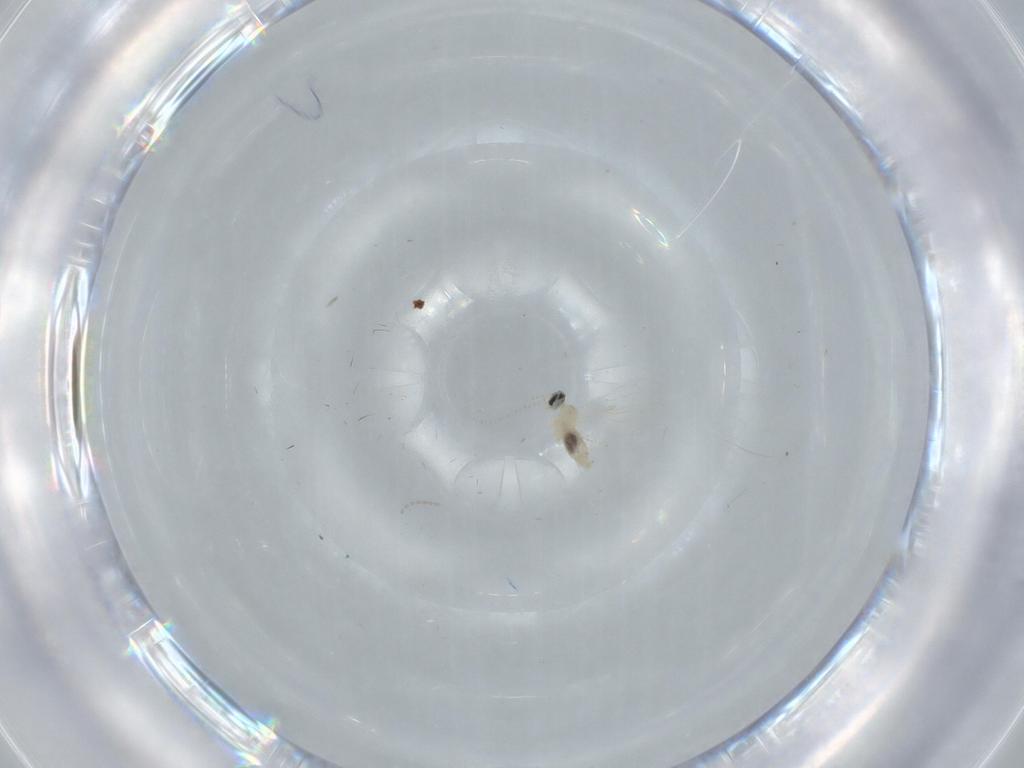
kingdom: Animalia
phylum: Arthropoda
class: Insecta
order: Diptera
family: Cecidomyiidae
